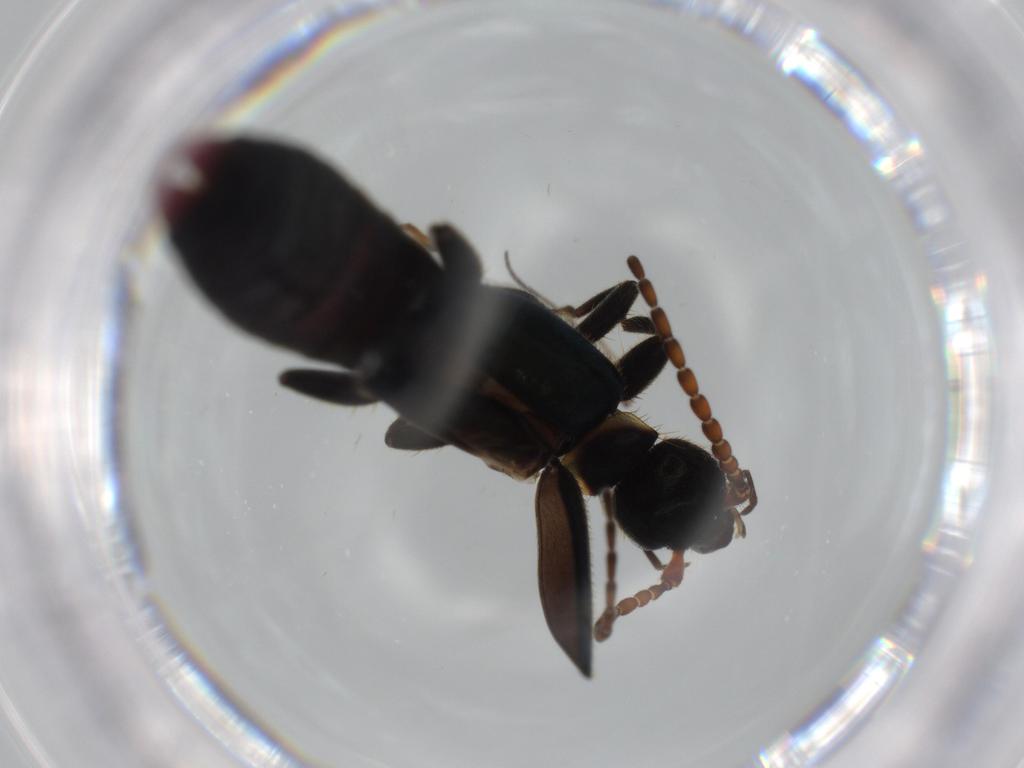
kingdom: Animalia
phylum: Arthropoda
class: Insecta
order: Dermaptera
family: Forficulidae
